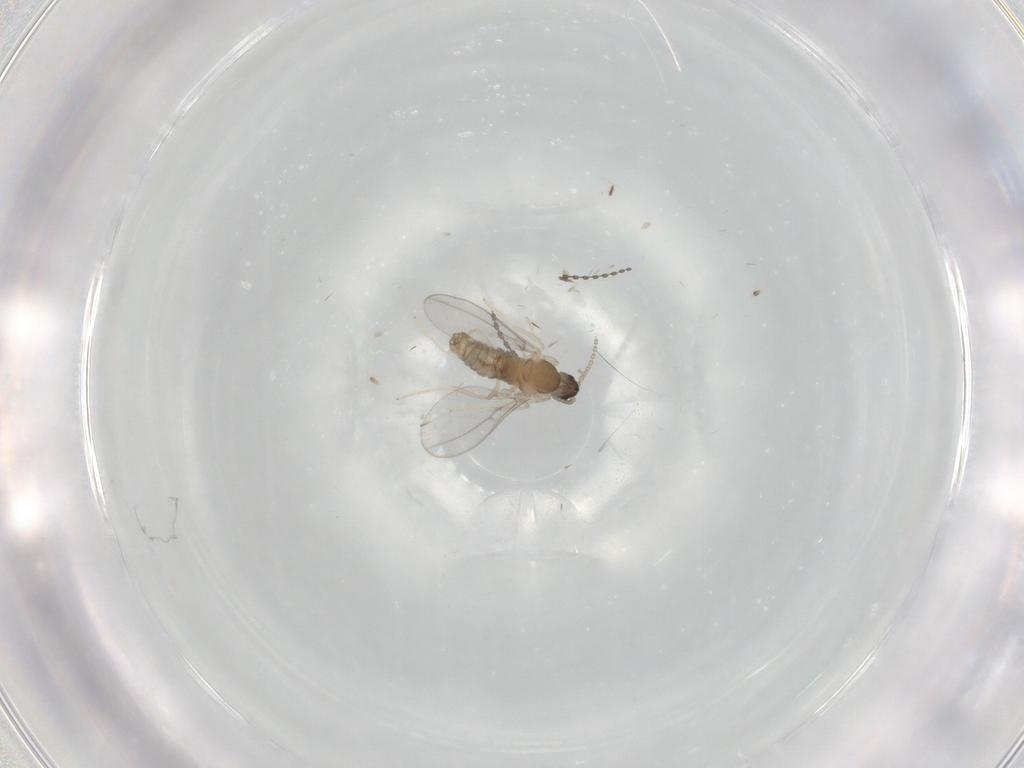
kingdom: Animalia
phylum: Arthropoda
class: Insecta
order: Diptera
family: Cecidomyiidae
